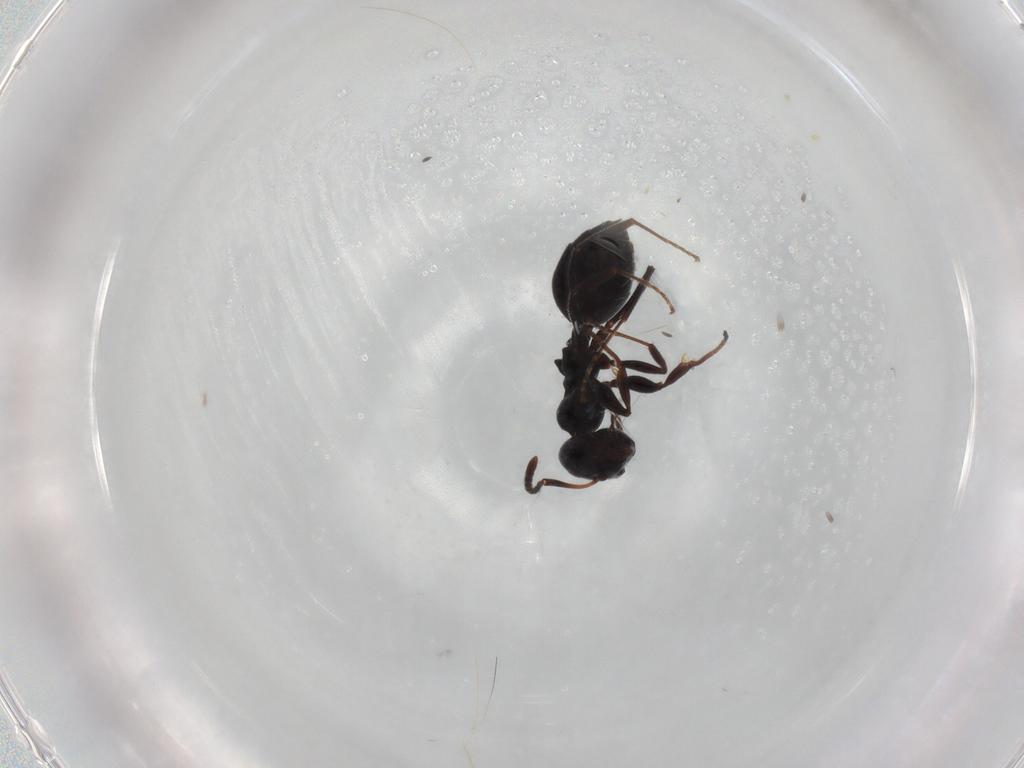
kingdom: Animalia
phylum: Arthropoda
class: Insecta
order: Hymenoptera
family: Formicidae
